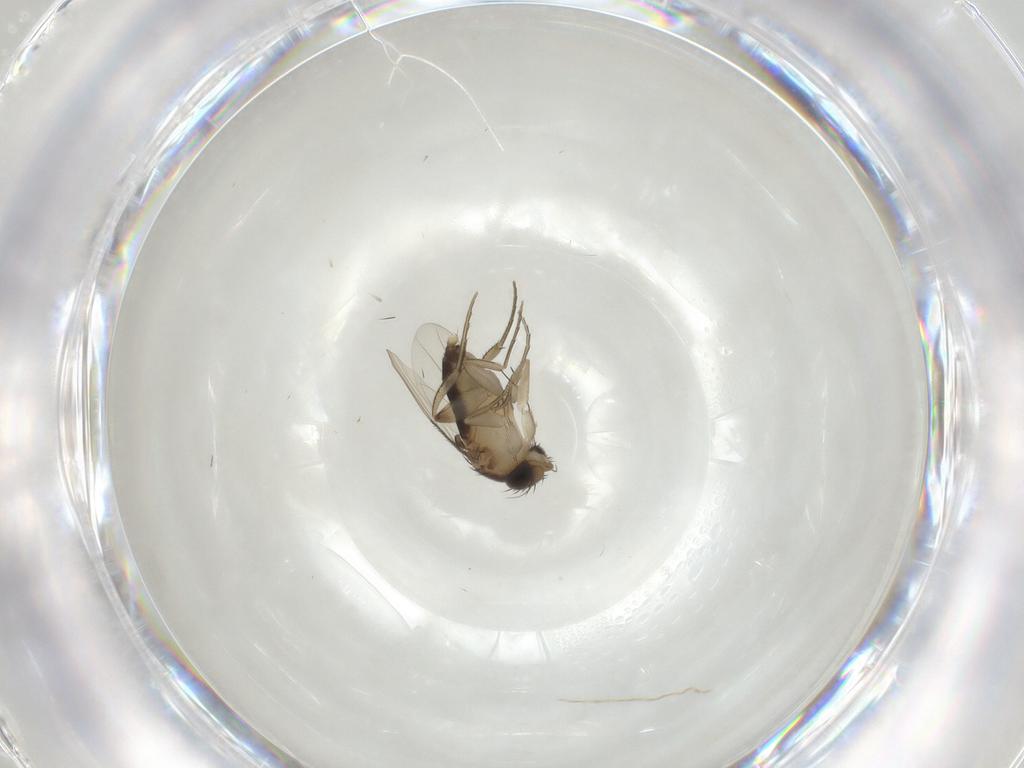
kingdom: Animalia
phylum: Arthropoda
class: Insecta
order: Diptera
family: Phoridae
